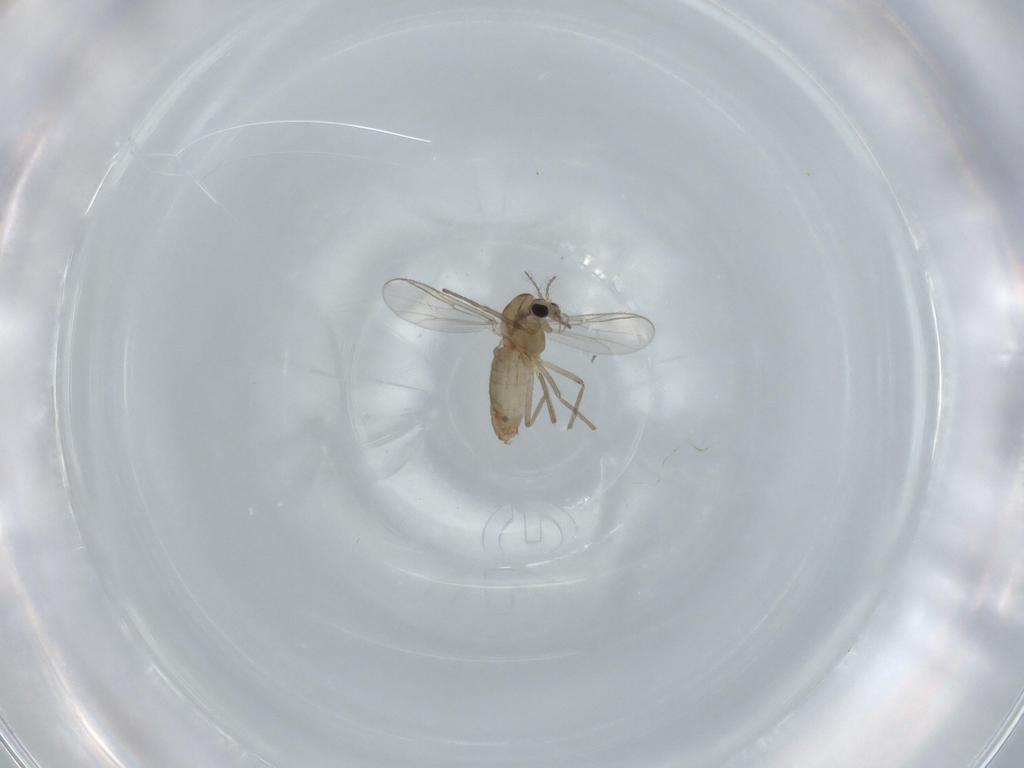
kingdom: Animalia
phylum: Arthropoda
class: Insecta
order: Diptera
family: Chironomidae
